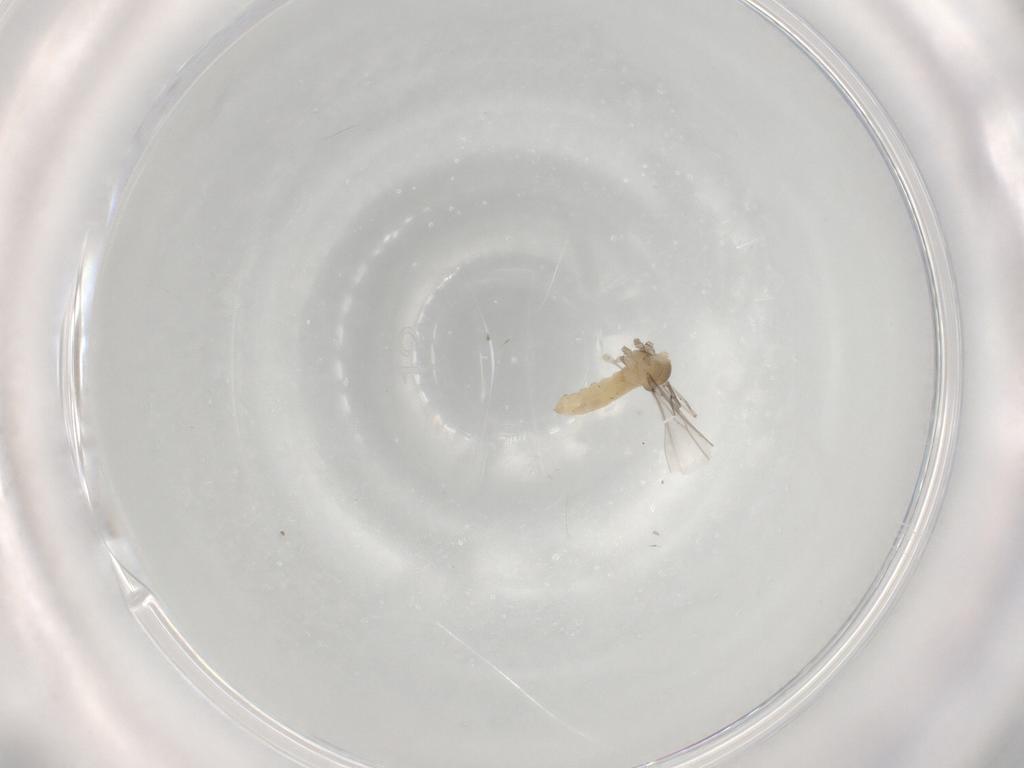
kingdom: Animalia
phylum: Arthropoda
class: Insecta
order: Diptera
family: Cecidomyiidae
